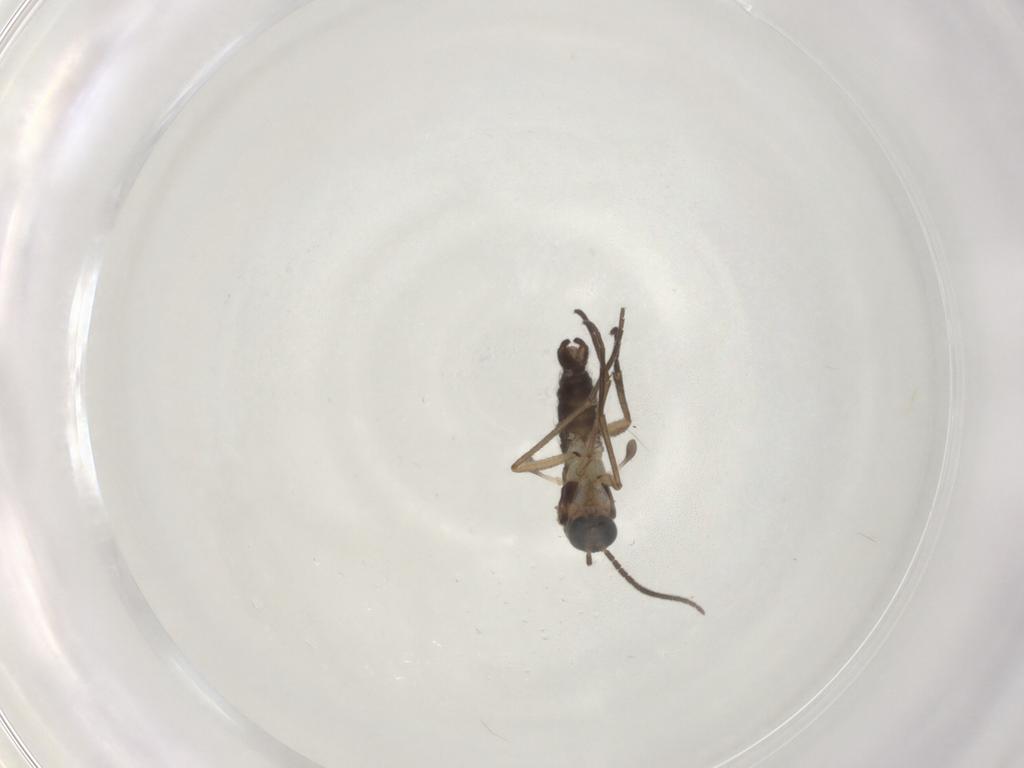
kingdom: Animalia
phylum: Arthropoda
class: Insecta
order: Diptera
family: Sciaridae
